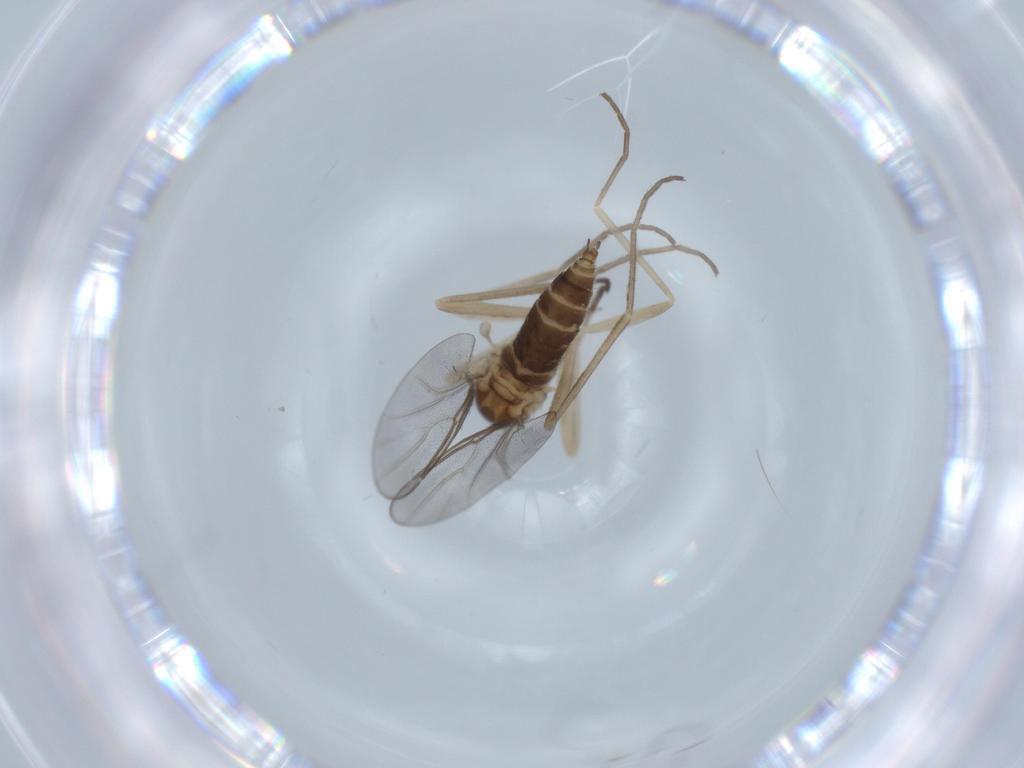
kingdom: Animalia
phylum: Arthropoda
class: Insecta
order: Diptera
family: Cecidomyiidae
